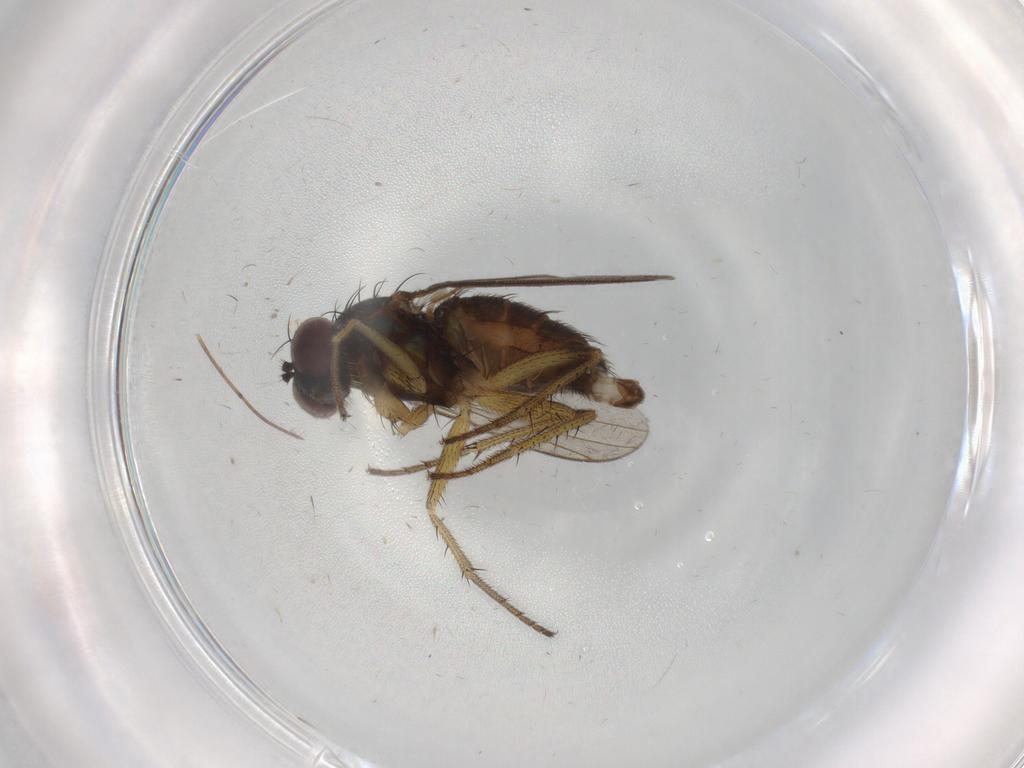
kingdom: Animalia
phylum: Arthropoda
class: Insecta
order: Diptera
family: Dolichopodidae
